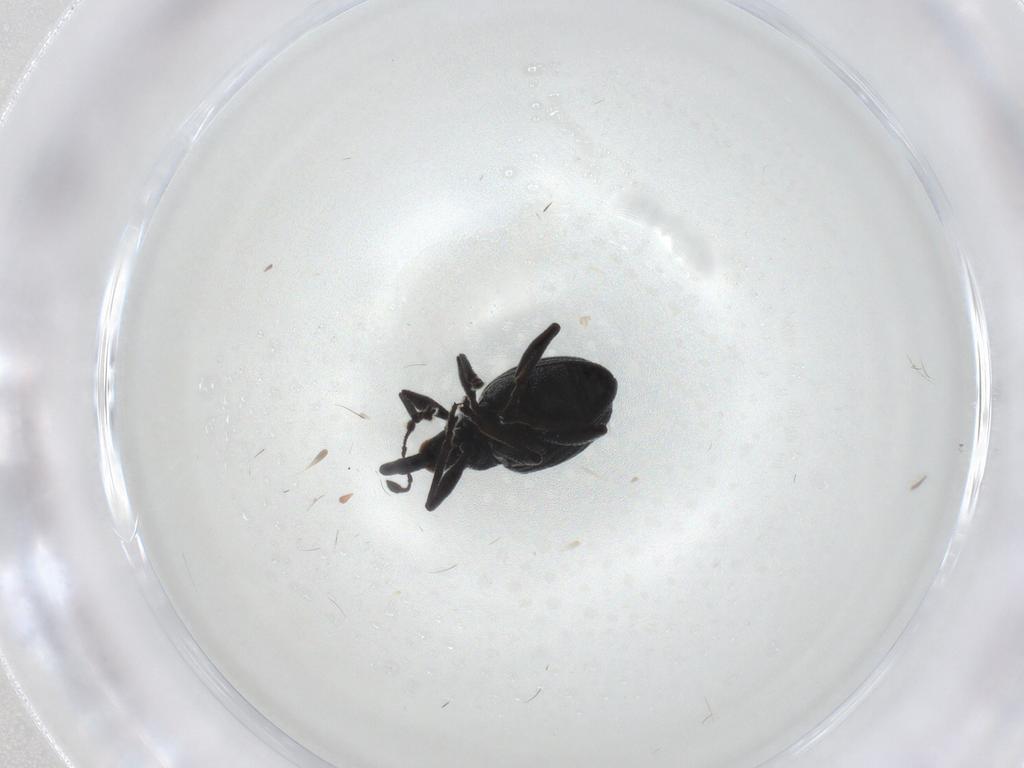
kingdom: Animalia
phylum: Arthropoda
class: Insecta
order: Coleoptera
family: Brentidae
